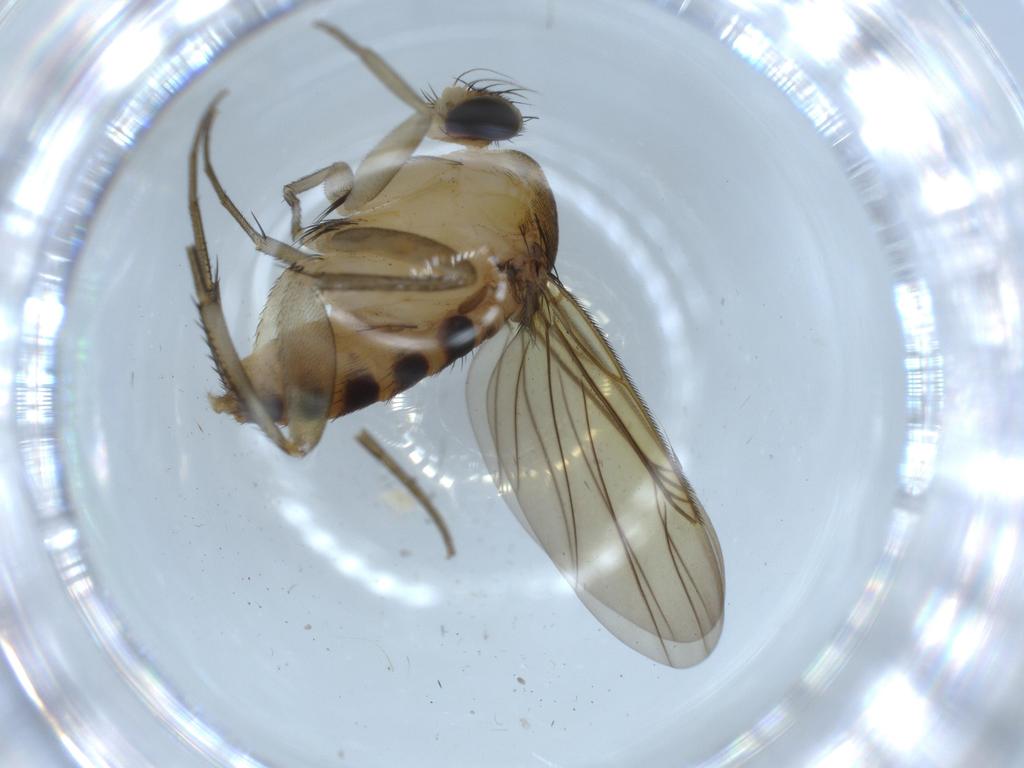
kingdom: Animalia
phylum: Arthropoda
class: Insecta
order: Diptera
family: Phoridae
